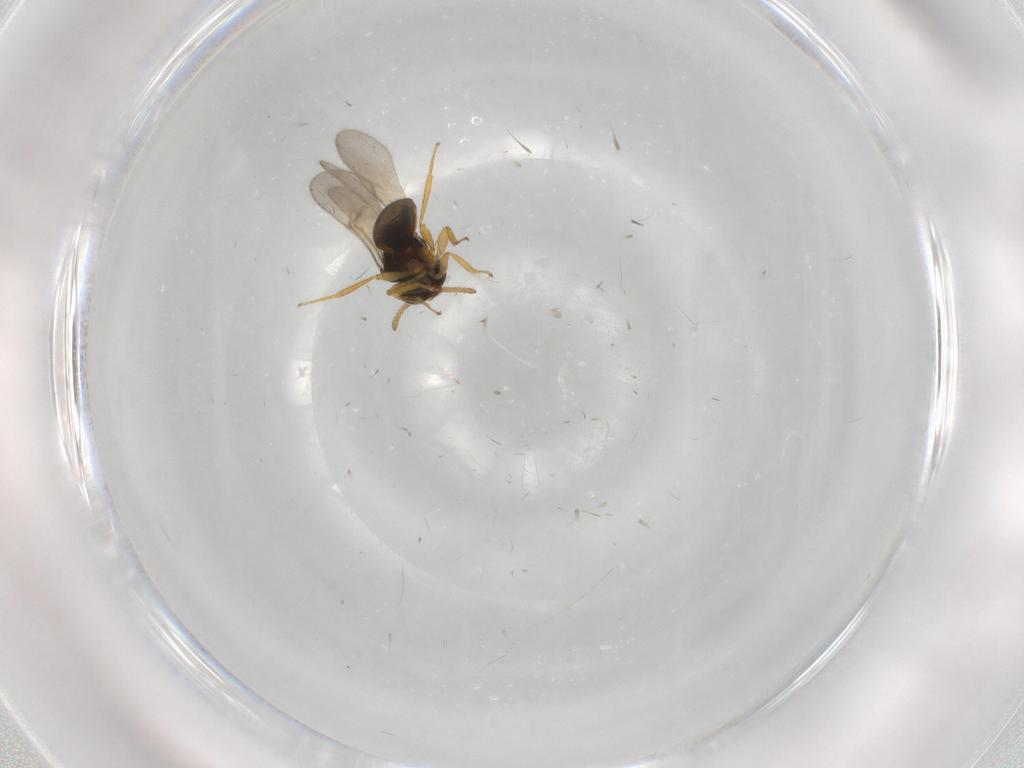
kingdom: Animalia
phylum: Arthropoda
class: Insecta
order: Hymenoptera
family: Scelionidae
